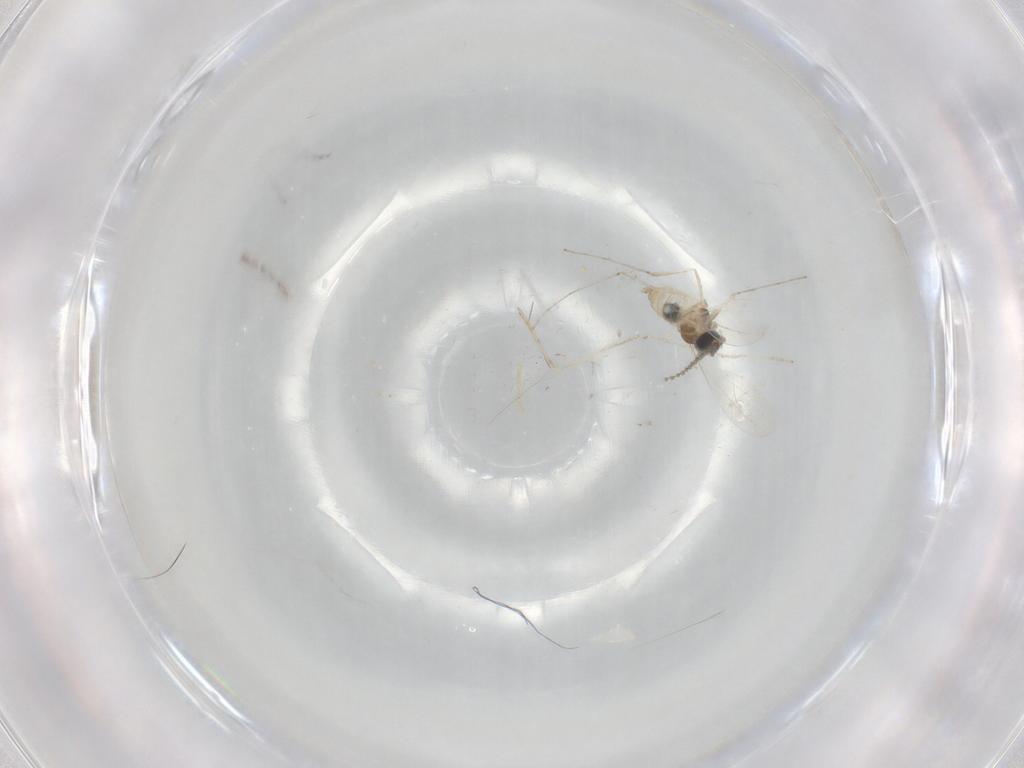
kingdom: Animalia
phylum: Arthropoda
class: Insecta
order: Diptera
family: Cecidomyiidae
